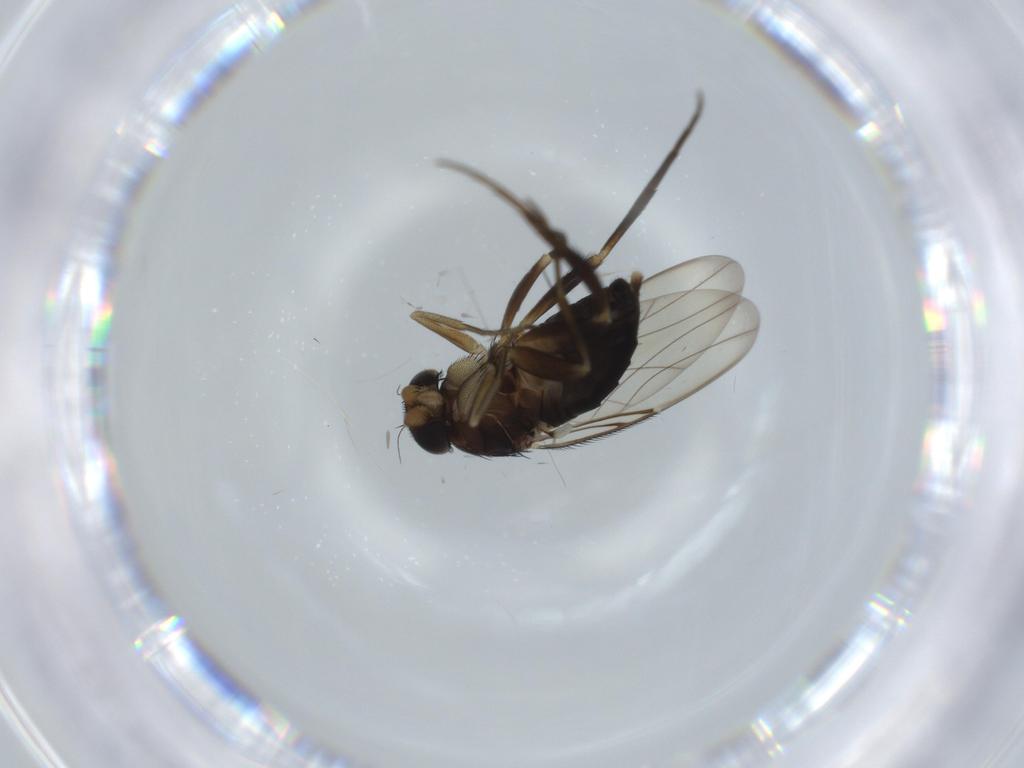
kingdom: Animalia
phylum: Arthropoda
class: Insecta
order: Diptera
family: Phoridae
